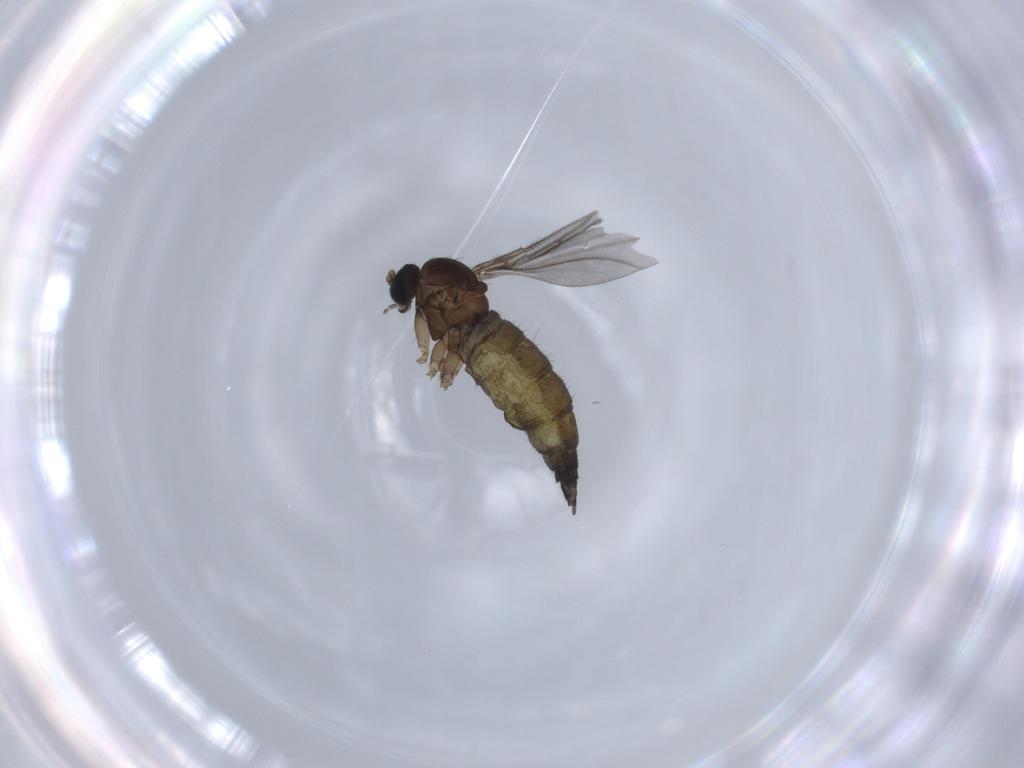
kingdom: Animalia
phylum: Arthropoda
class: Insecta
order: Diptera
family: Sciaridae
